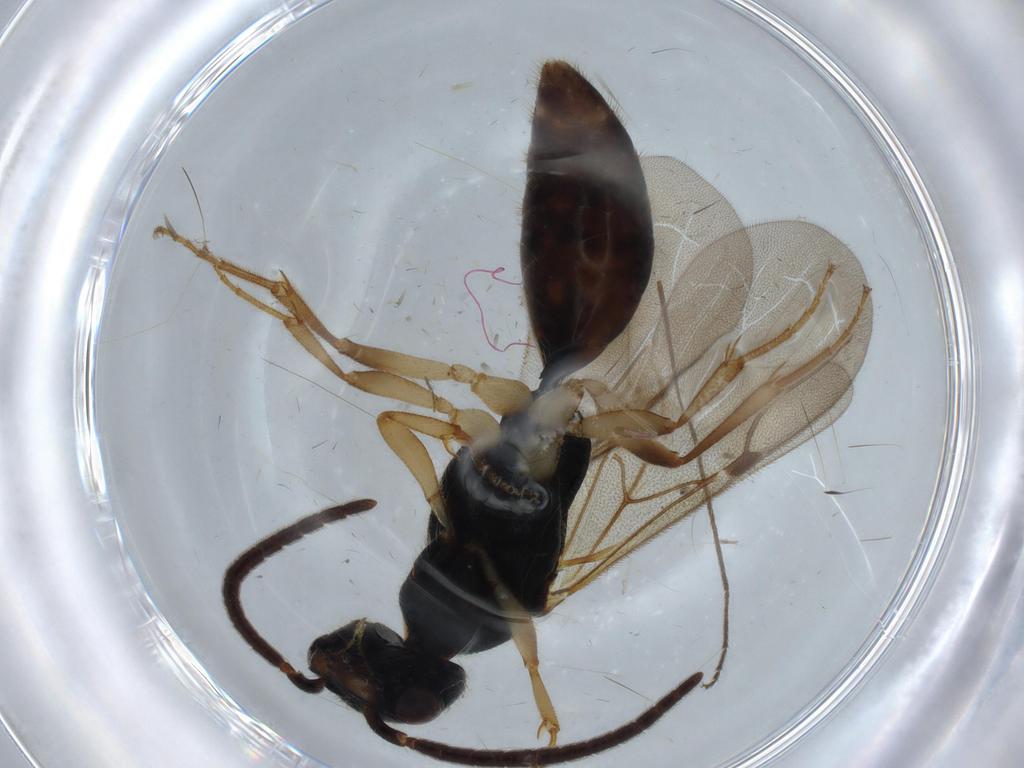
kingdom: Animalia
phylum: Arthropoda
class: Insecta
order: Hymenoptera
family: Bethylidae
